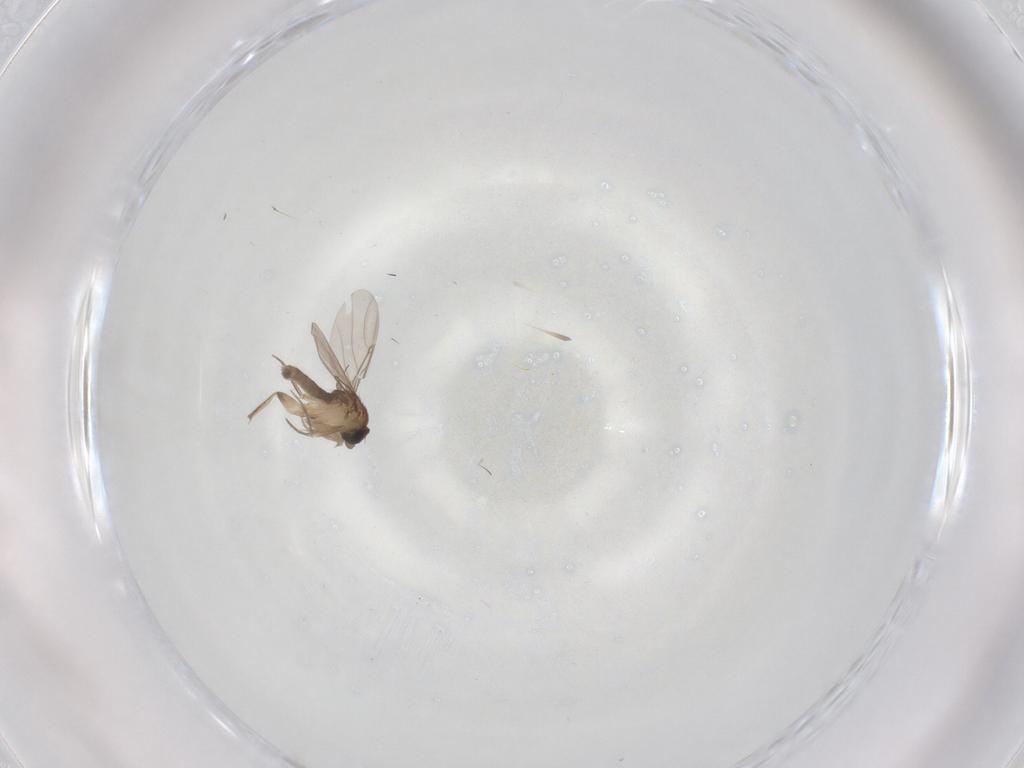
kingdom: Animalia
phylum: Arthropoda
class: Insecta
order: Diptera
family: Phoridae
